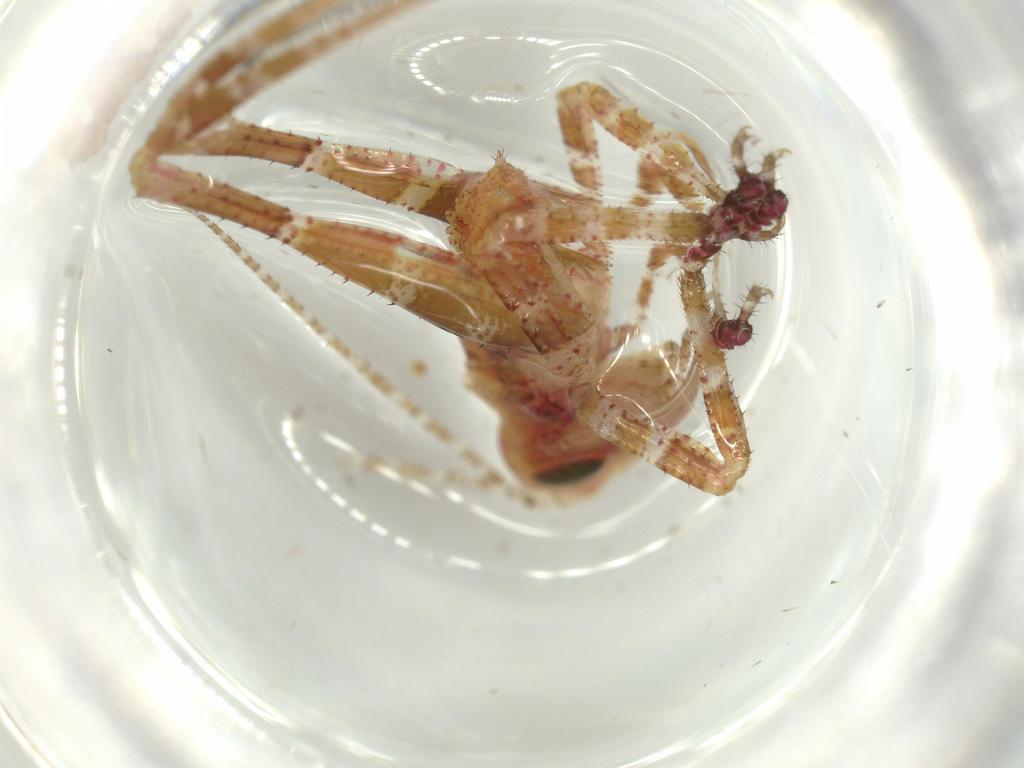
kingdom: Animalia
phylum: Arthropoda
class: Insecta
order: Orthoptera
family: Tettigoniidae
